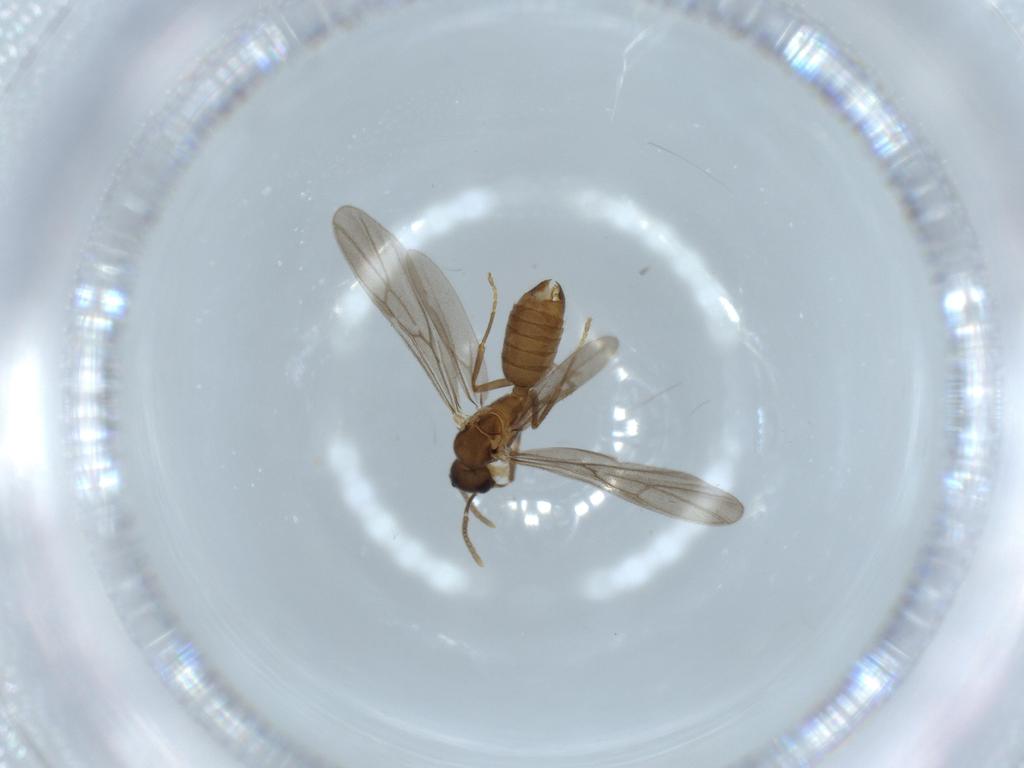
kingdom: Animalia
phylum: Arthropoda
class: Insecta
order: Hymenoptera
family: Formicidae
